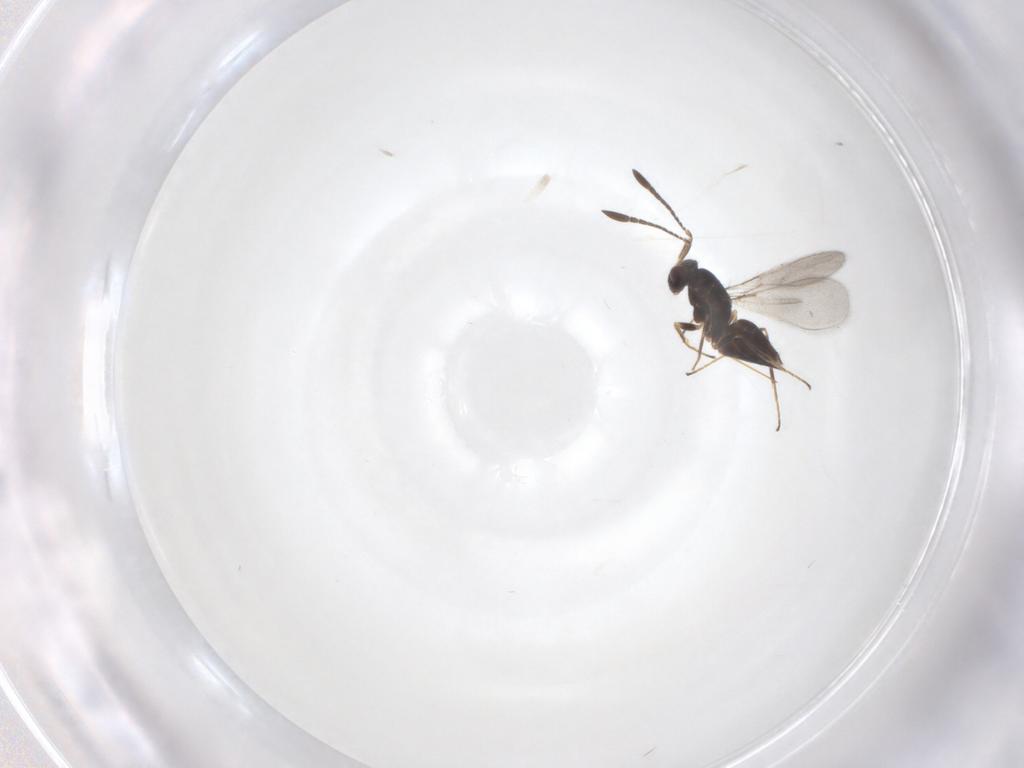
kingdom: Animalia
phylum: Arthropoda
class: Insecta
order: Hymenoptera
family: Mymaridae
